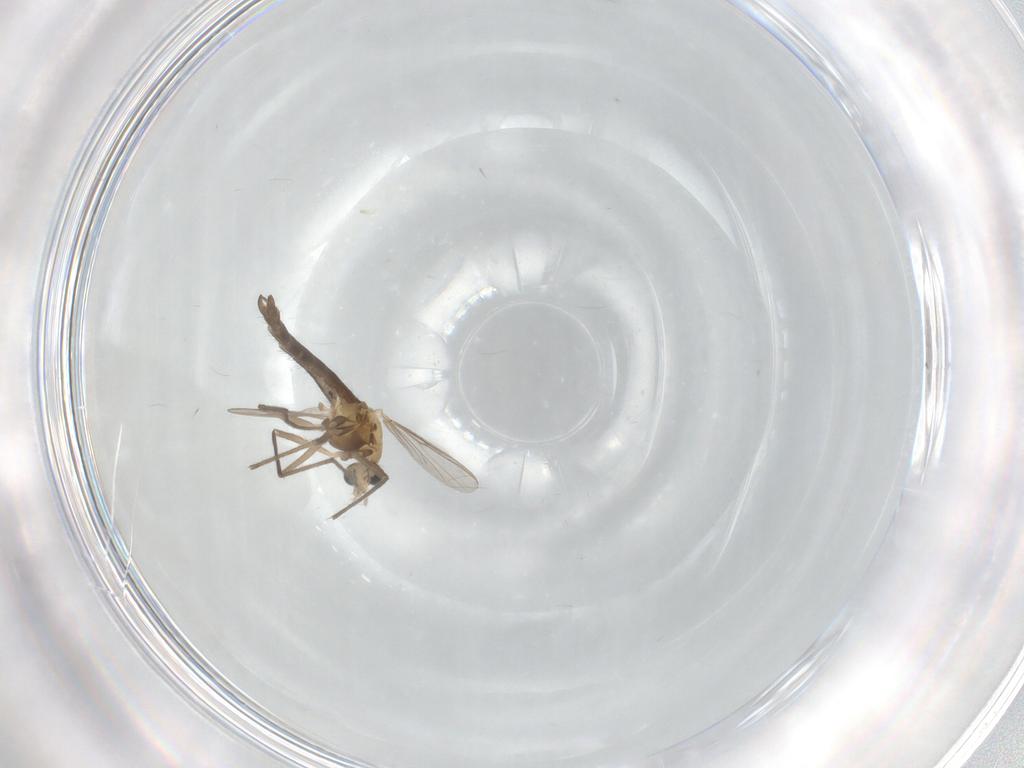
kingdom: Animalia
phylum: Arthropoda
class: Insecta
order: Diptera
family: Chironomidae
